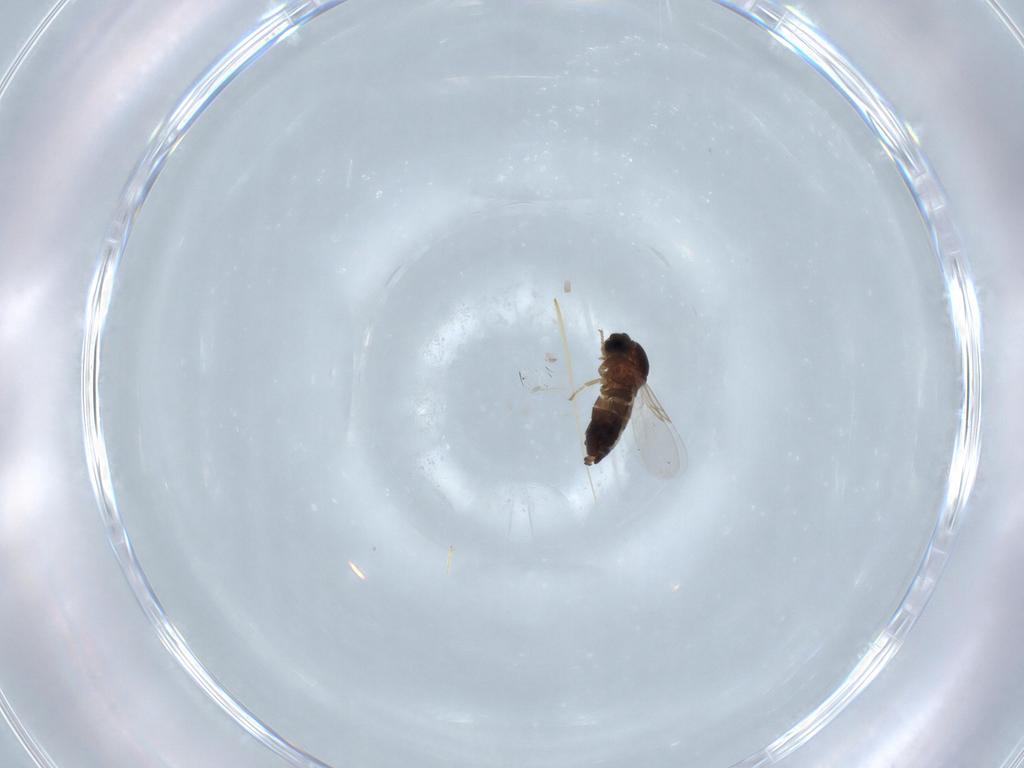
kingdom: Animalia
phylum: Arthropoda
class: Insecta
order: Diptera
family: Scatopsidae
